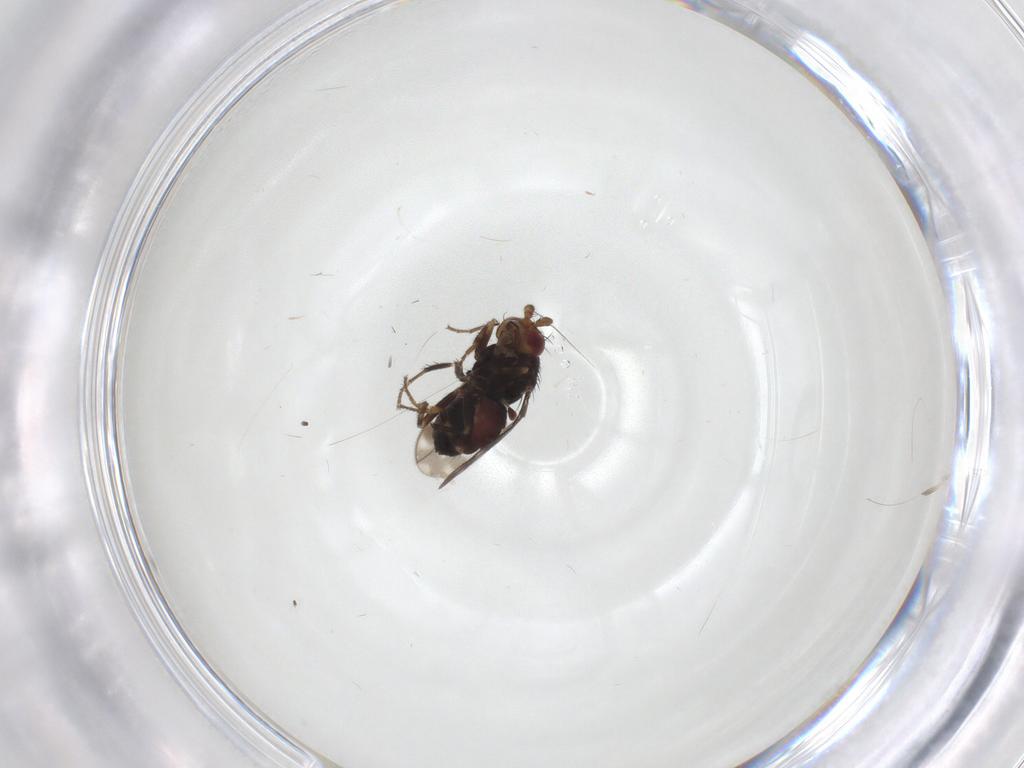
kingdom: Animalia
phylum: Arthropoda
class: Insecta
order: Diptera
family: Sphaeroceridae
